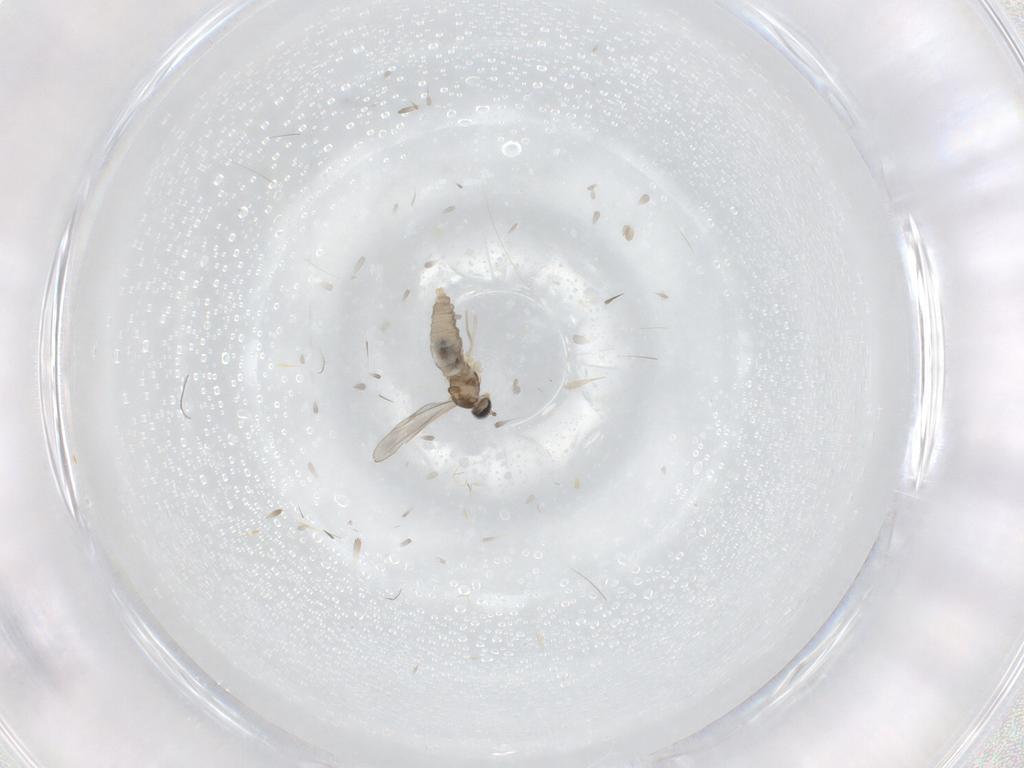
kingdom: Animalia
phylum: Arthropoda
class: Insecta
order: Diptera
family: Cecidomyiidae
